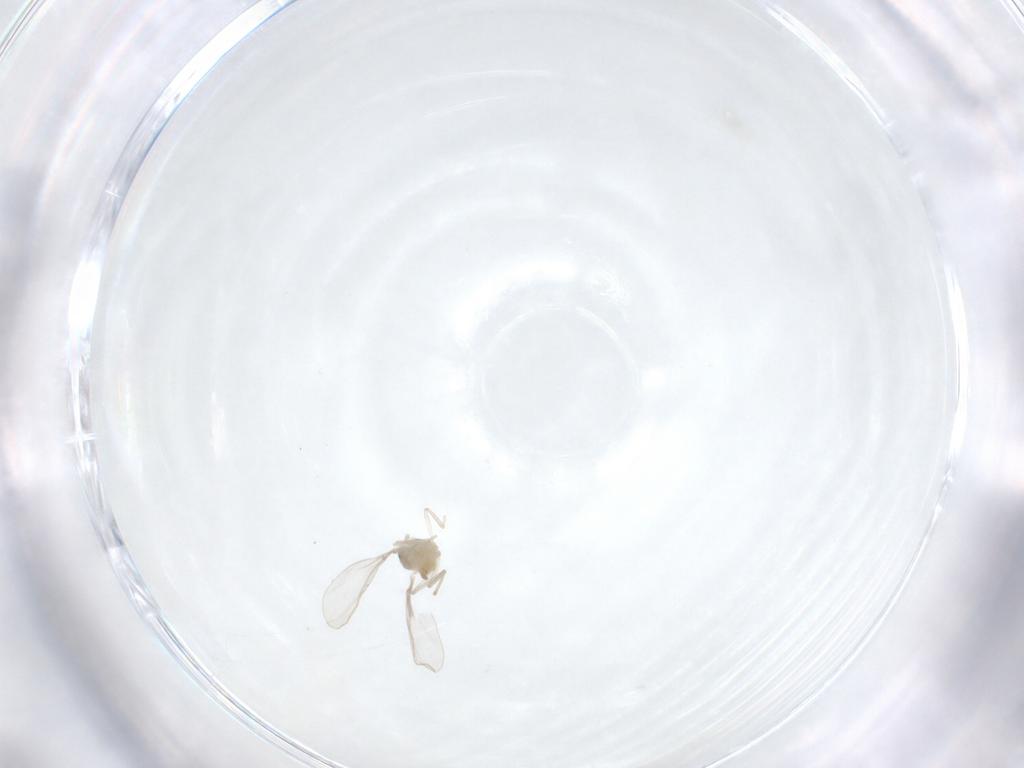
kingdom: Animalia
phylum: Arthropoda
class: Insecta
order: Diptera
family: Cecidomyiidae
